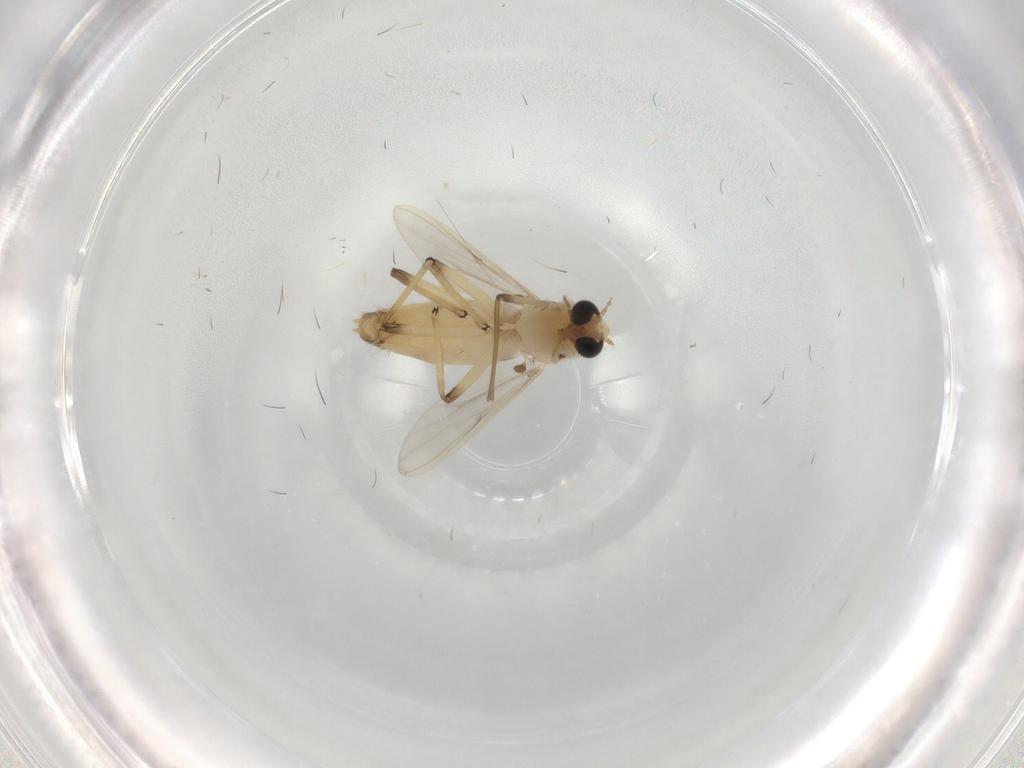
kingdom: Animalia
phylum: Arthropoda
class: Insecta
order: Diptera
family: Chironomidae
